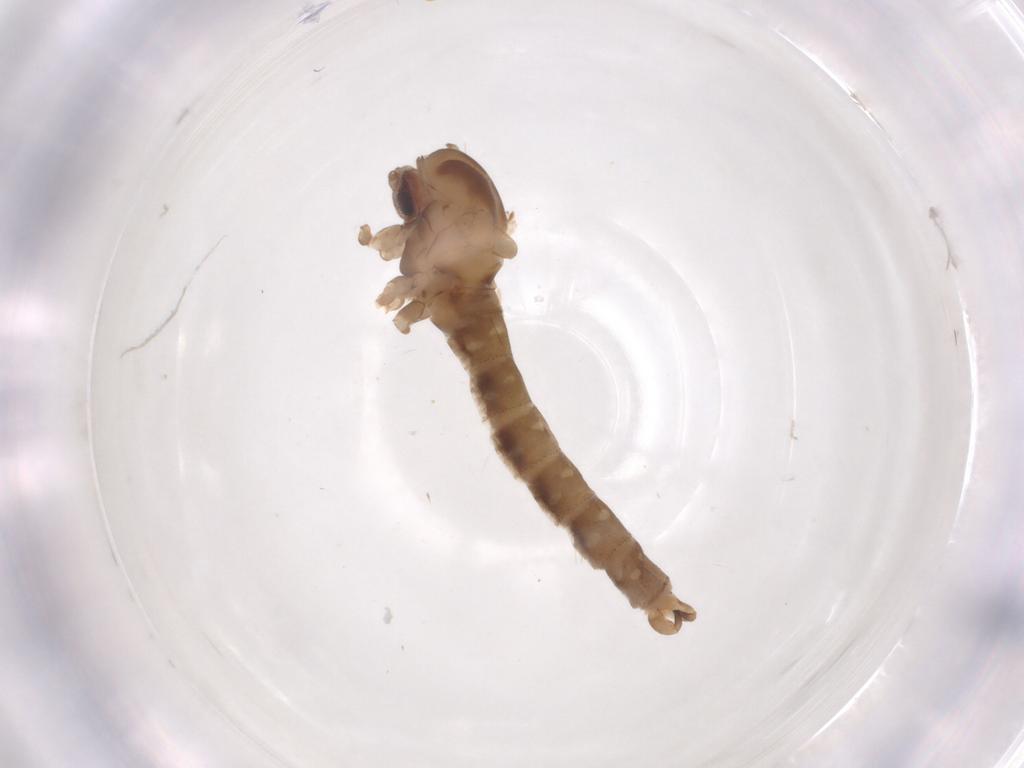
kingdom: Animalia
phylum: Arthropoda
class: Insecta
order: Diptera
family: Cecidomyiidae
